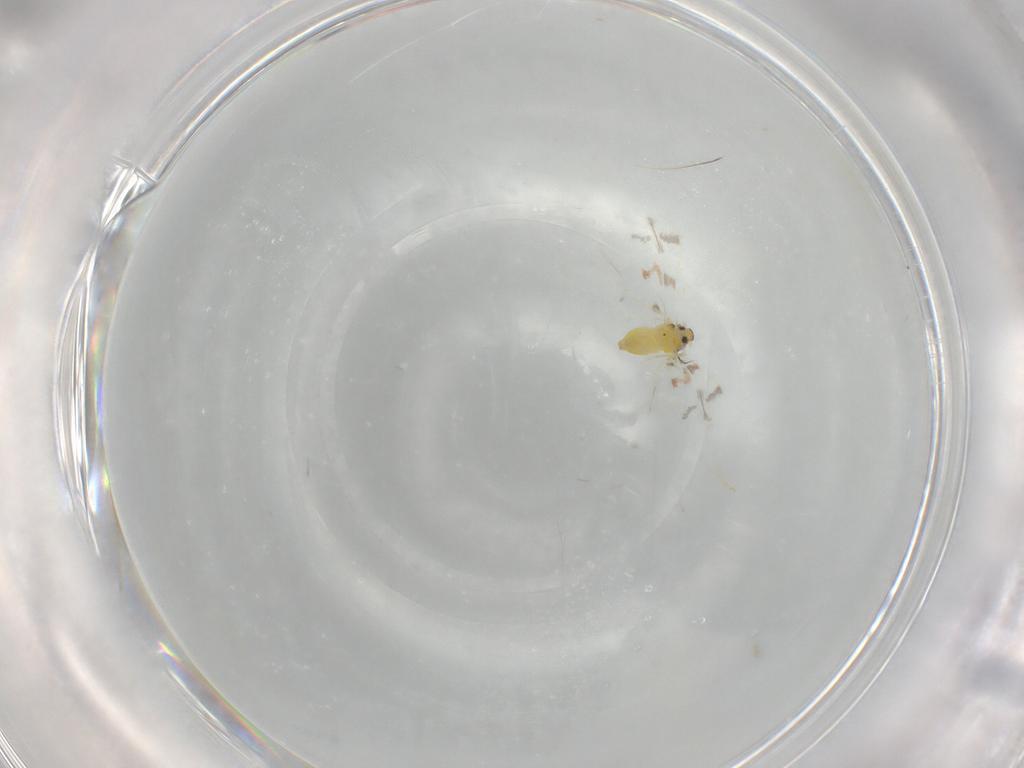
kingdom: Animalia
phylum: Arthropoda
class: Insecta
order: Hemiptera
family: Aleyrodidae
